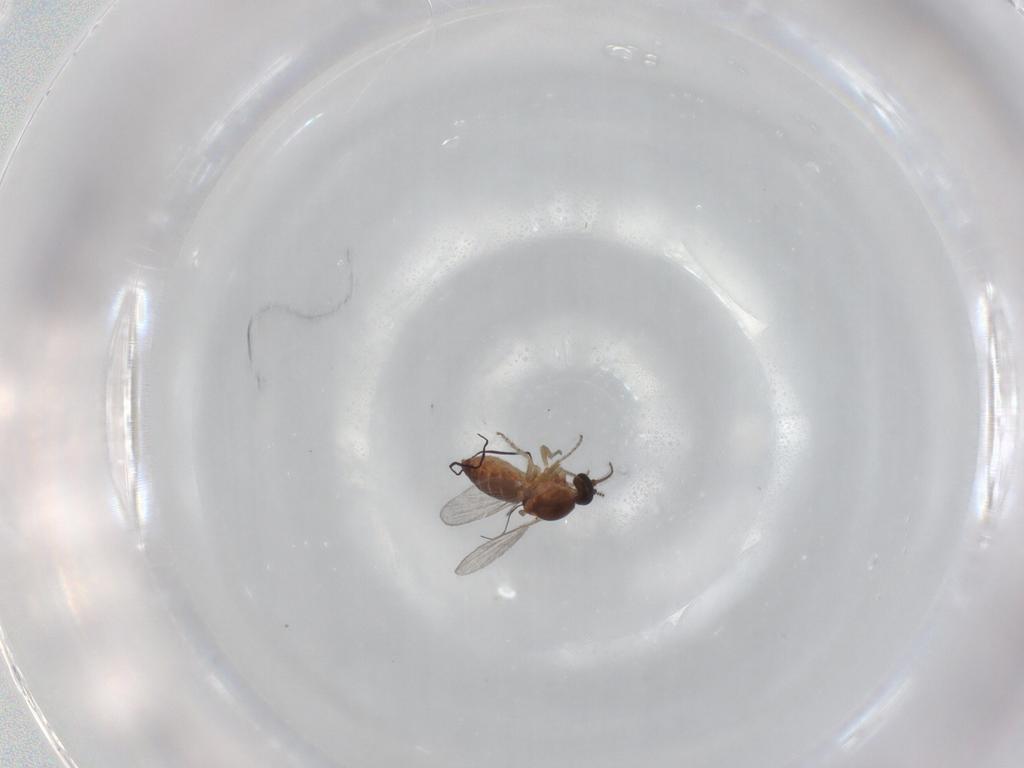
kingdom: Animalia
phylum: Arthropoda
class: Insecta
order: Diptera
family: Ceratopogonidae
